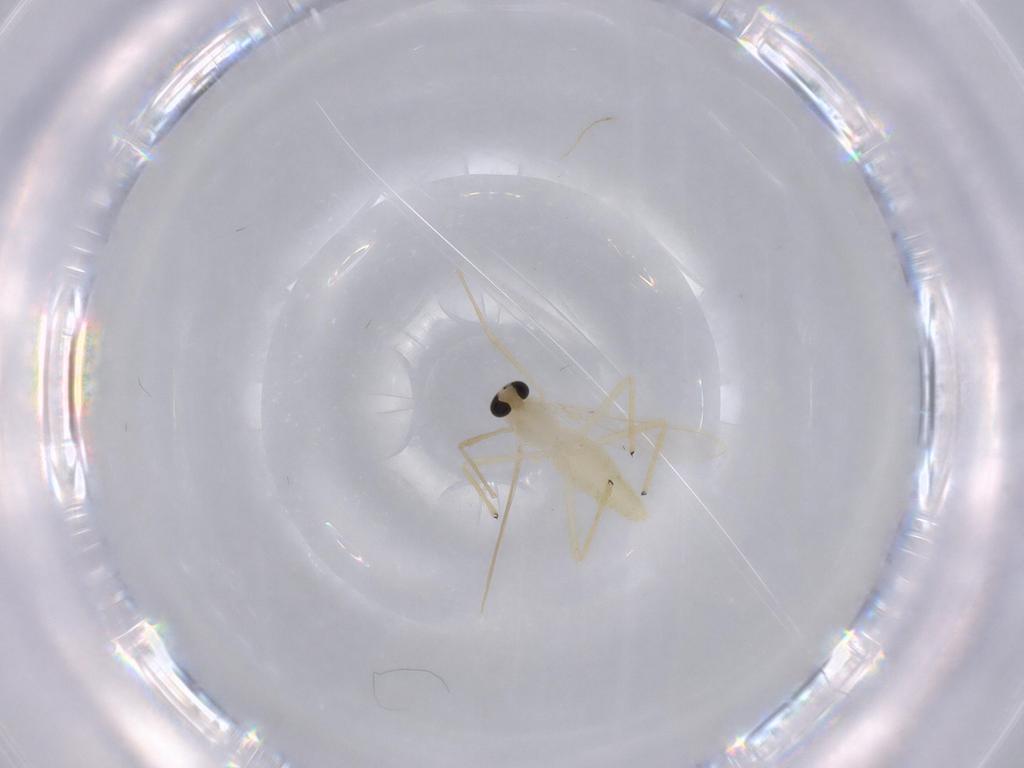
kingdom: Animalia
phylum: Arthropoda
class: Insecta
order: Diptera
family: Chironomidae
